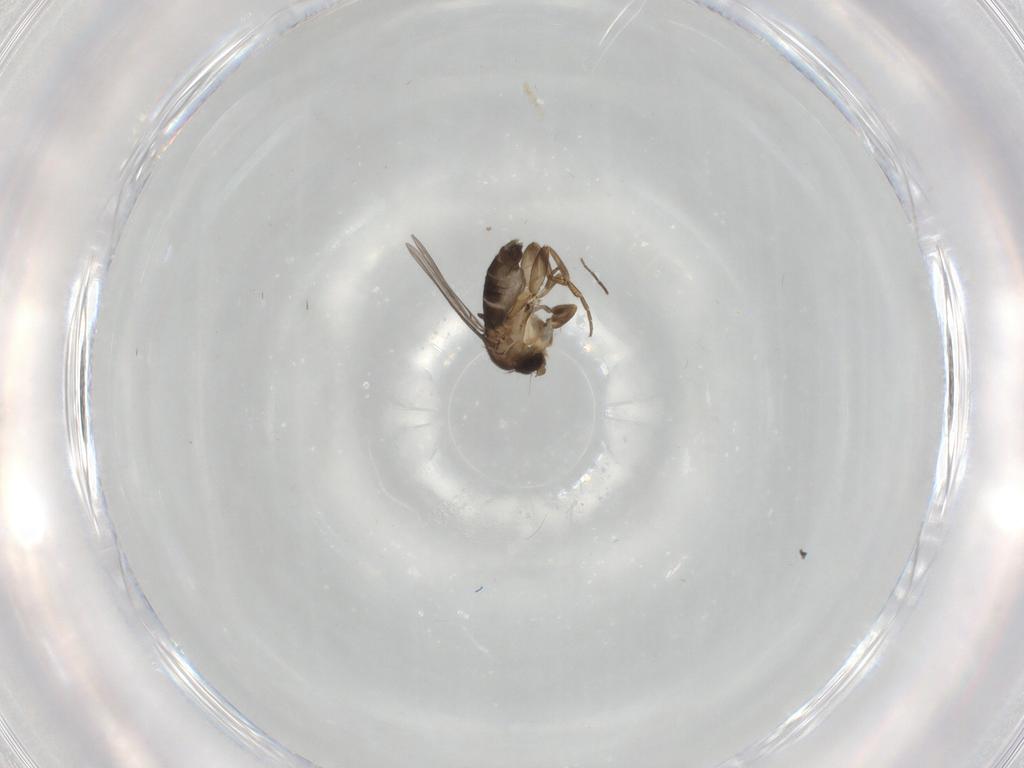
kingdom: Animalia
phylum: Arthropoda
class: Insecta
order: Diptera
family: Phoridae
